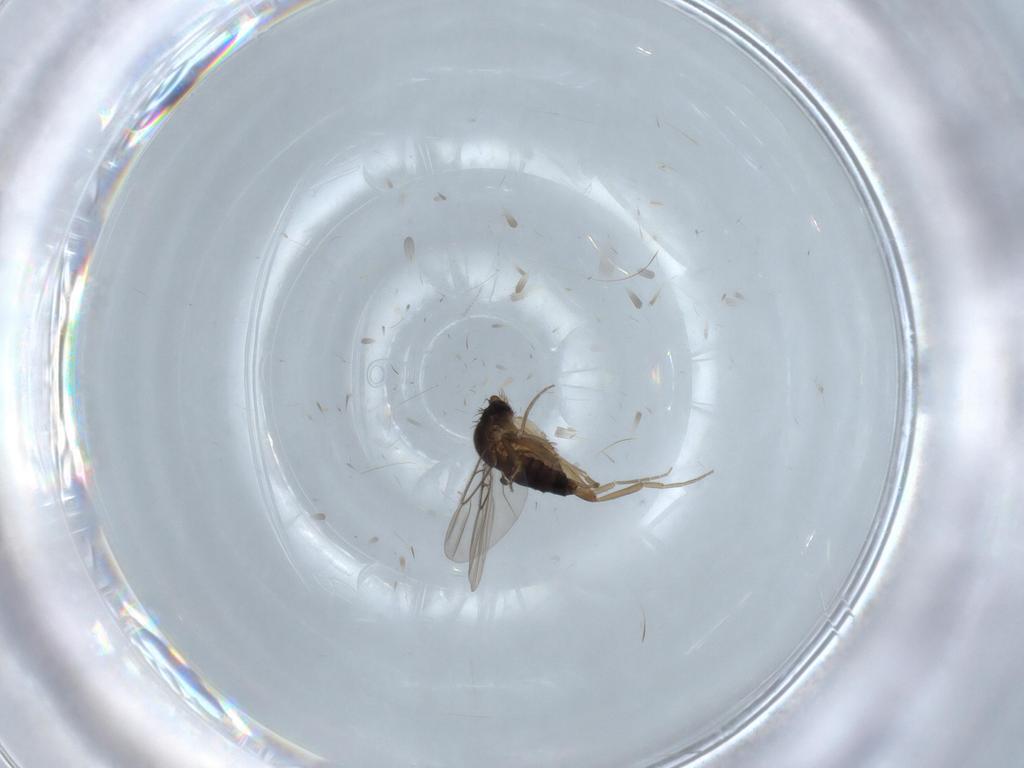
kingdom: Animalia
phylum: Arthropoda
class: Insecta
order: Diptera
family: Phoridae
